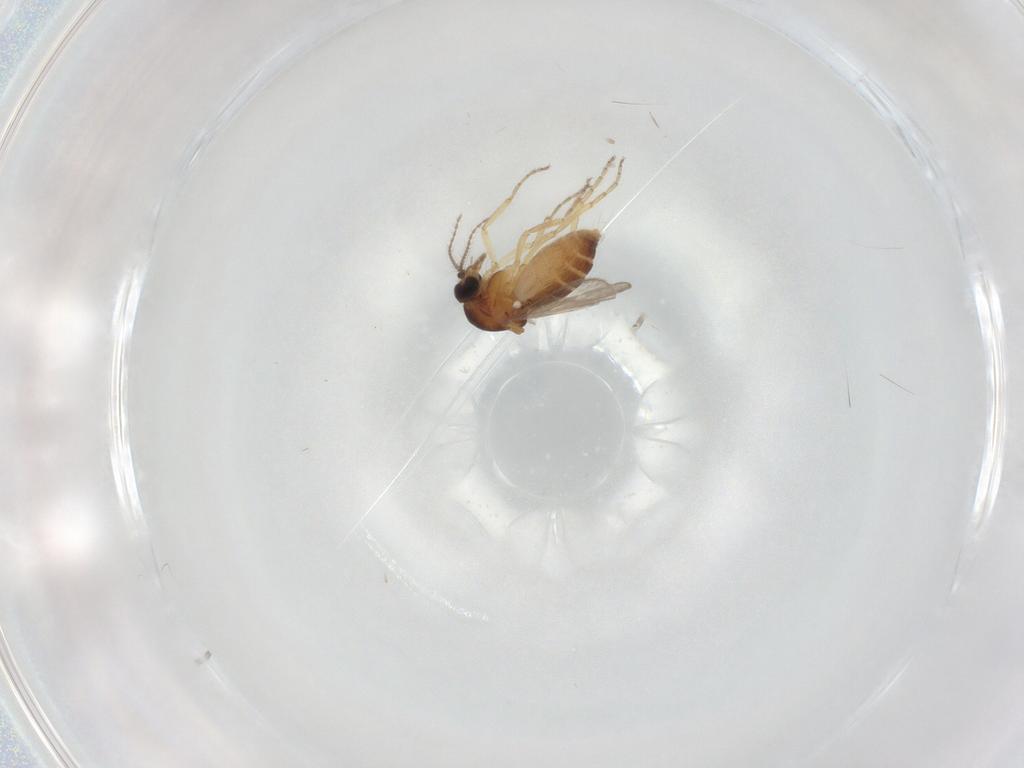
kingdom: Animalia
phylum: Arthropoda
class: Insecta
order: Diptera
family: Ceratopogonidae
